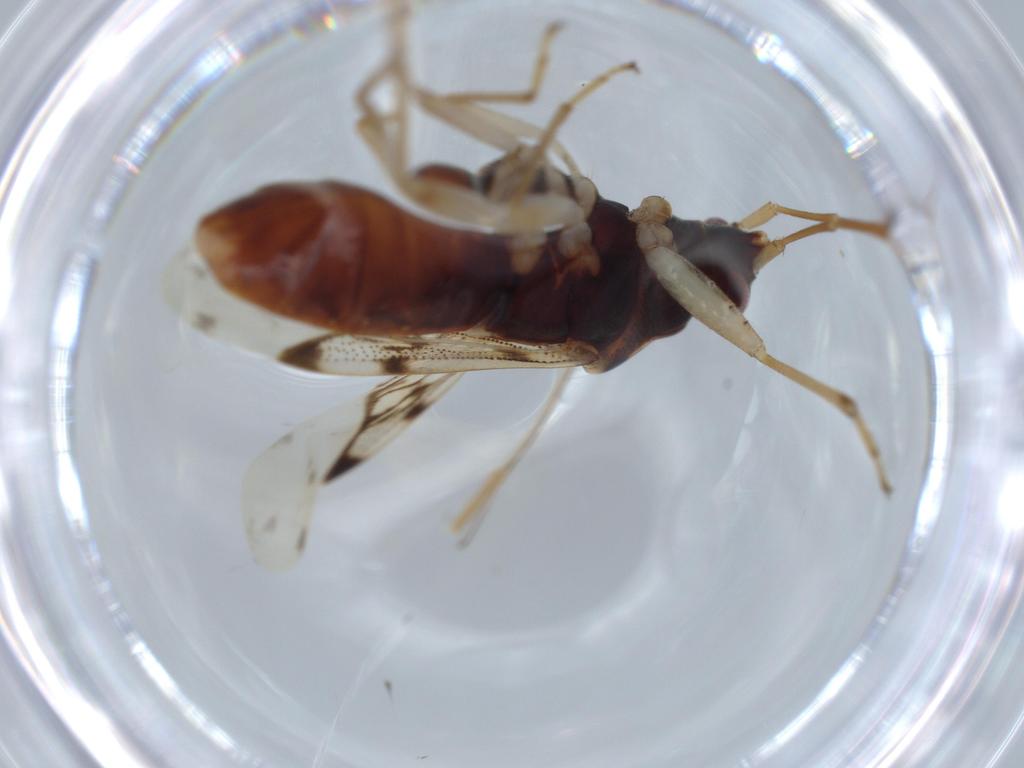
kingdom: Animalia
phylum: Arthropoda
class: Insecta
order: Hemiptera
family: Rhyparochromidae
